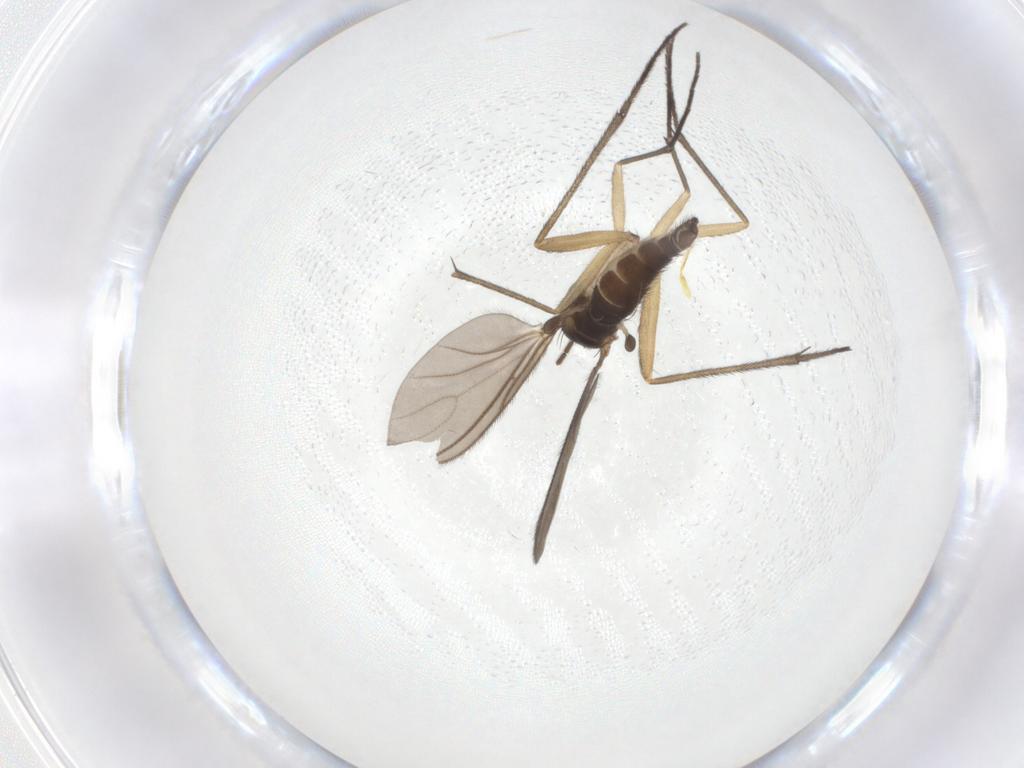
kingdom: Animalia
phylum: Arthropoda
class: Insecta
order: Diptera
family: Sciaridae
